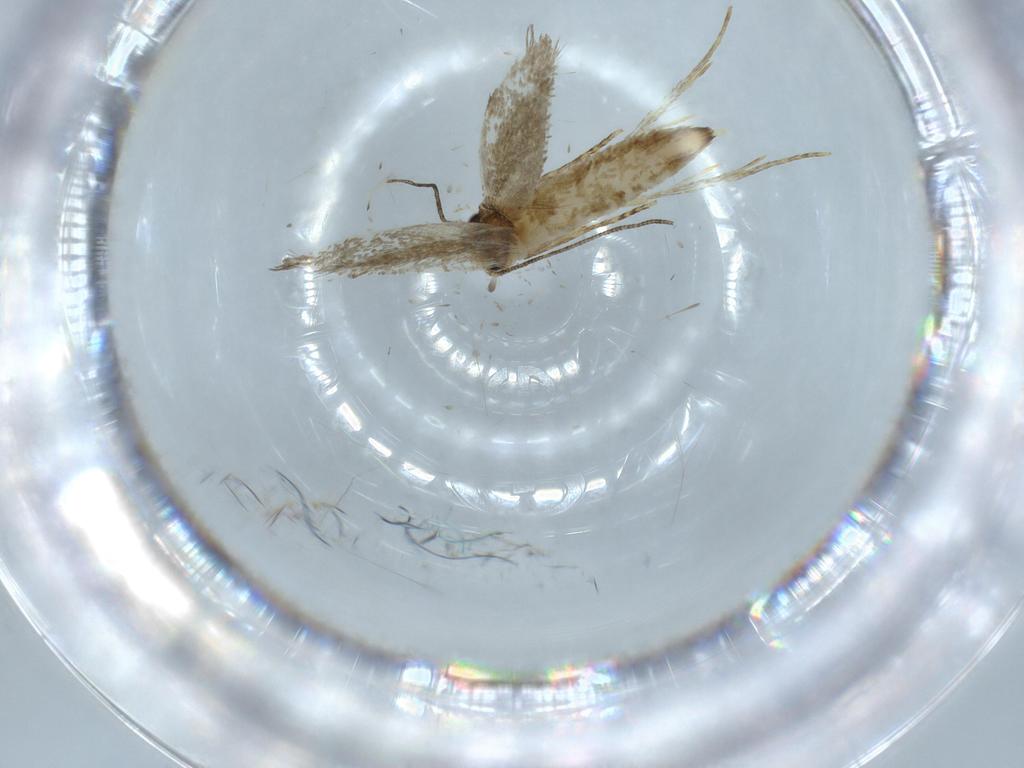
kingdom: Animalia
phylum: Arthropoda
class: Insecta
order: Lepidoptera
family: Tineidae
